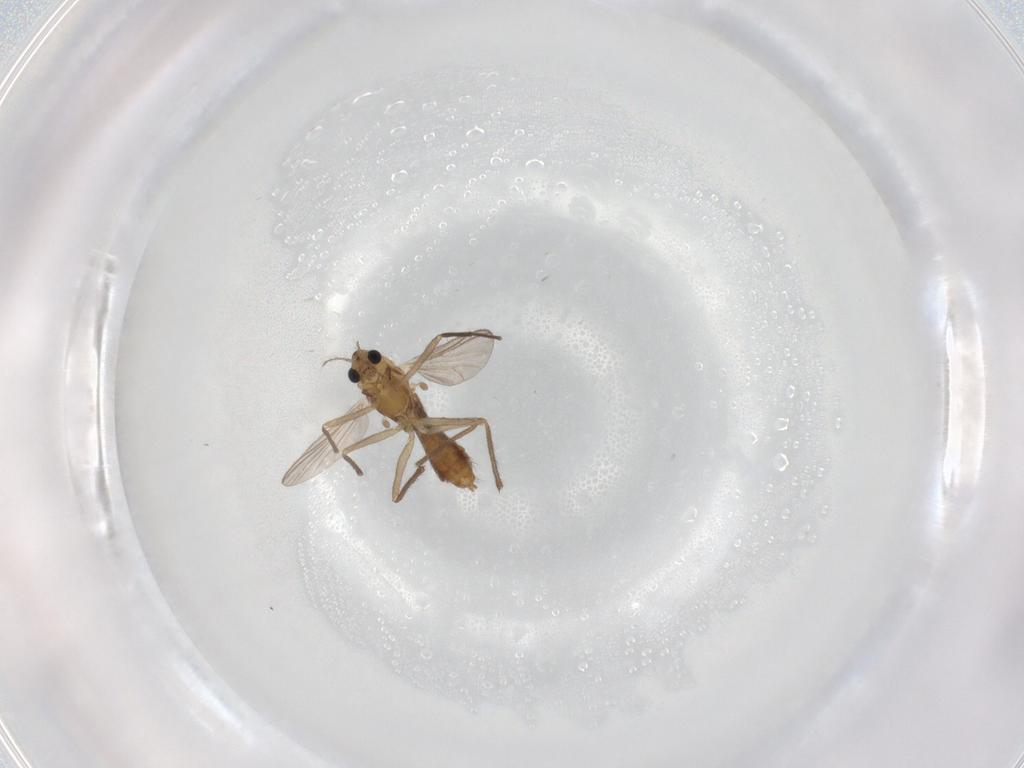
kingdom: Animalia
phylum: Arthropoda
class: Insecta
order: Diptera
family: Chironomidae
